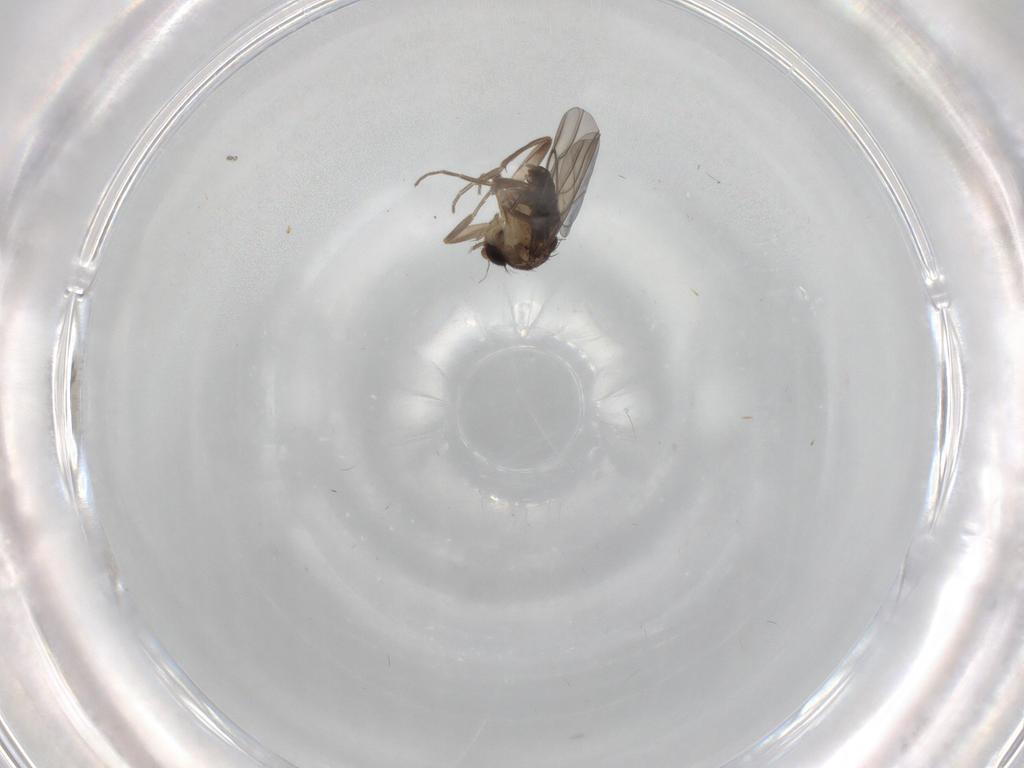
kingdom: Animalia
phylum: Arthropoda
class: Insecta
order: Diptera
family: Phoridae
